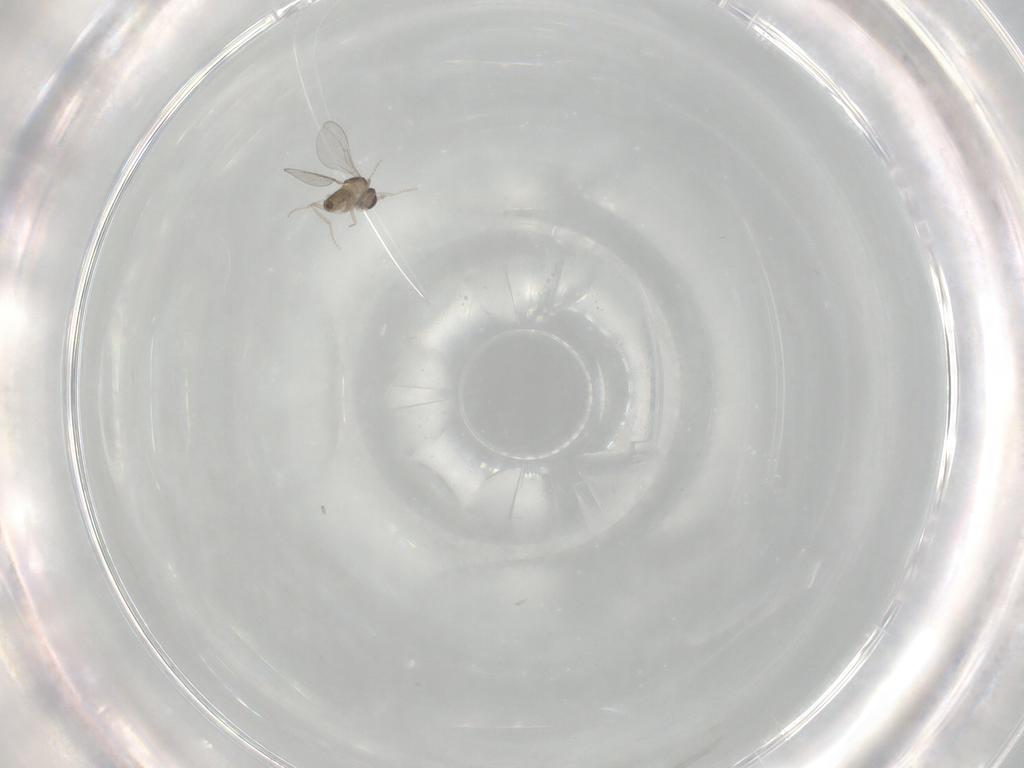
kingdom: Animalia
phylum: Arthropoda
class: Insecta
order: Diptera
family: Cecidomyiidae
